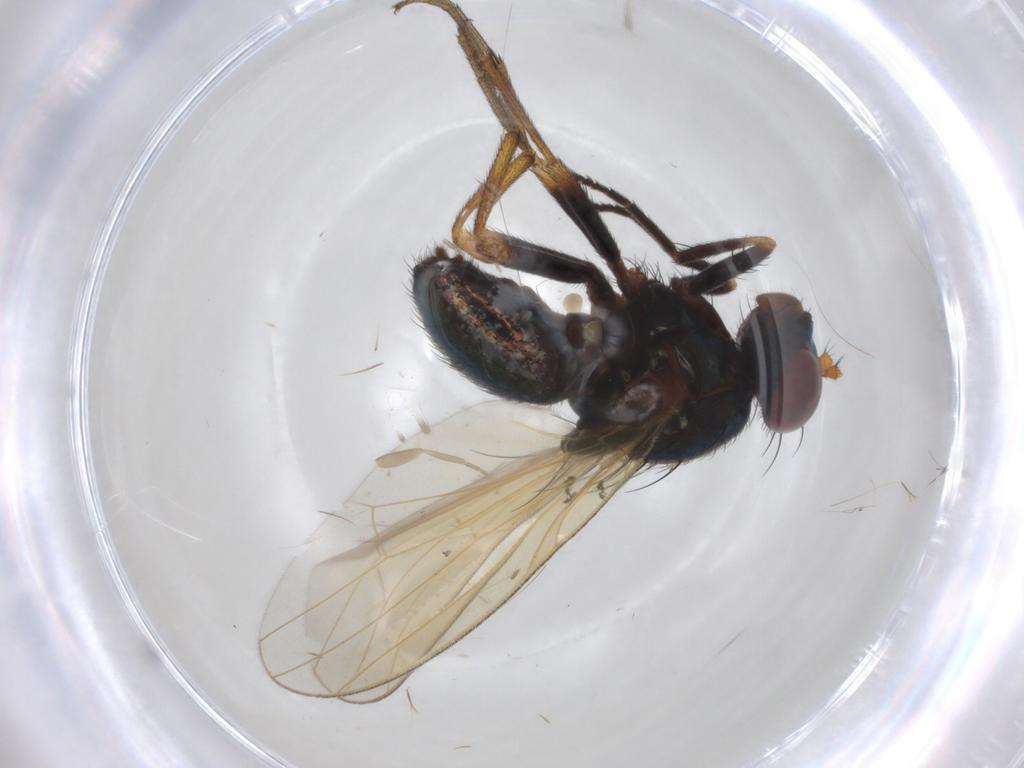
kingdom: Animalia
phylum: Arthropoda
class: Insecta
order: Diptera
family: Lauxaniidae
